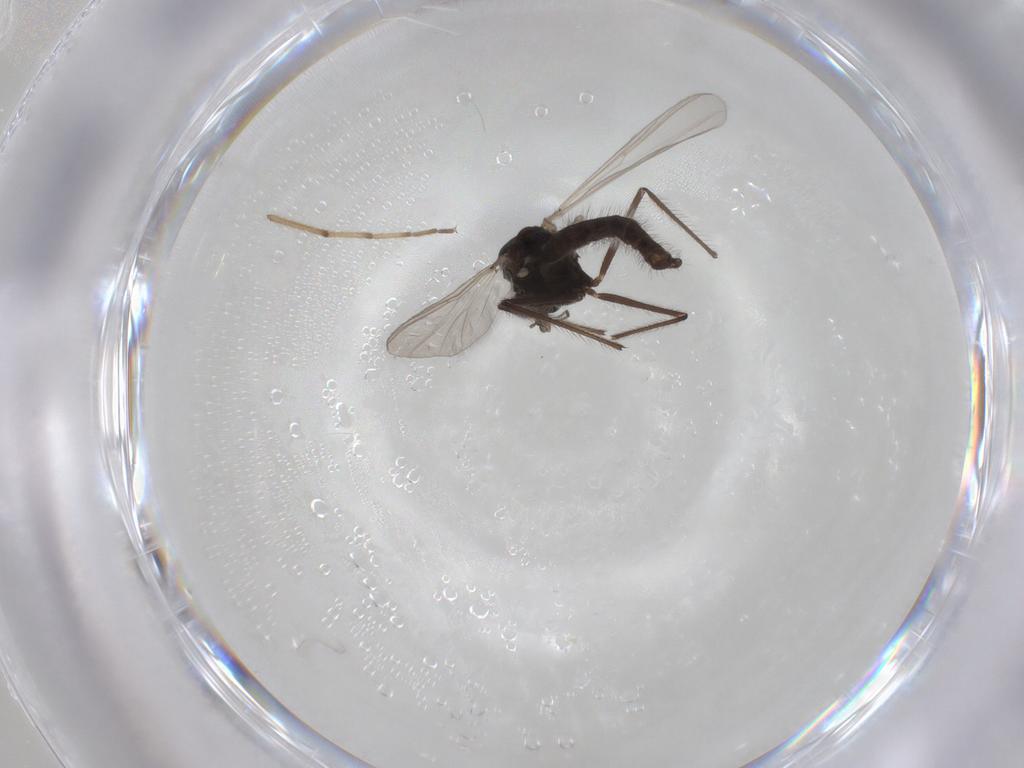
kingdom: Animalia
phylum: Arthropoda
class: Insecta
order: Diptera
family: Chironomidae
